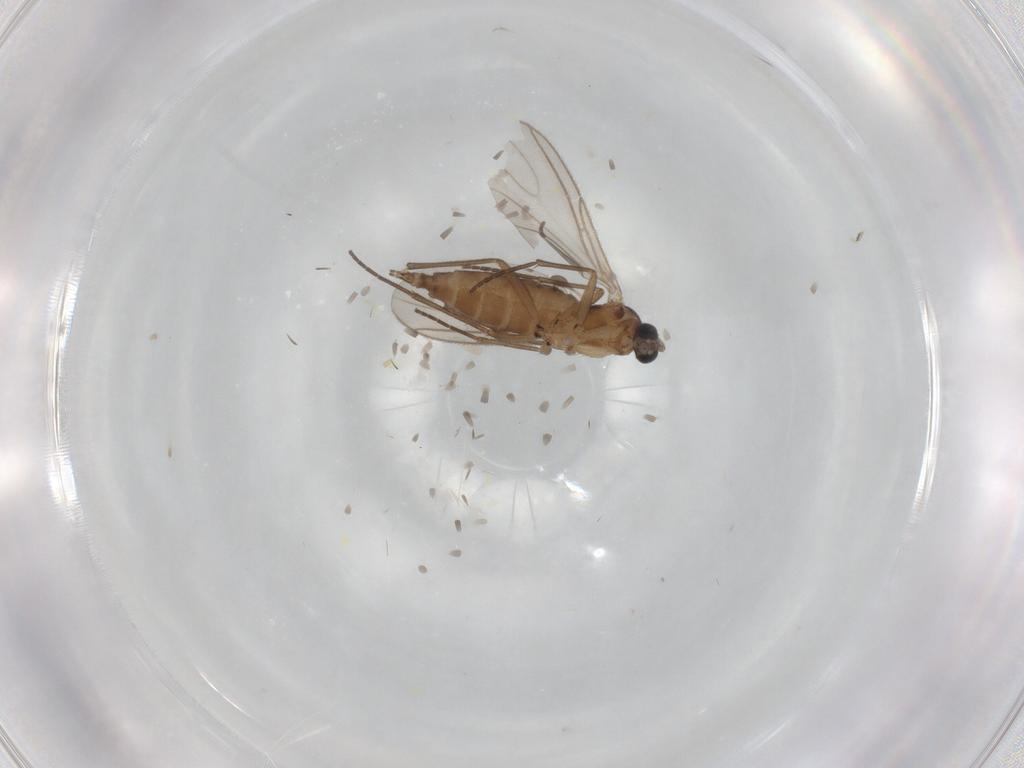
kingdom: Animalia
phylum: Arthropoda
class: Insecta
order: Diptera
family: Sciaridae
